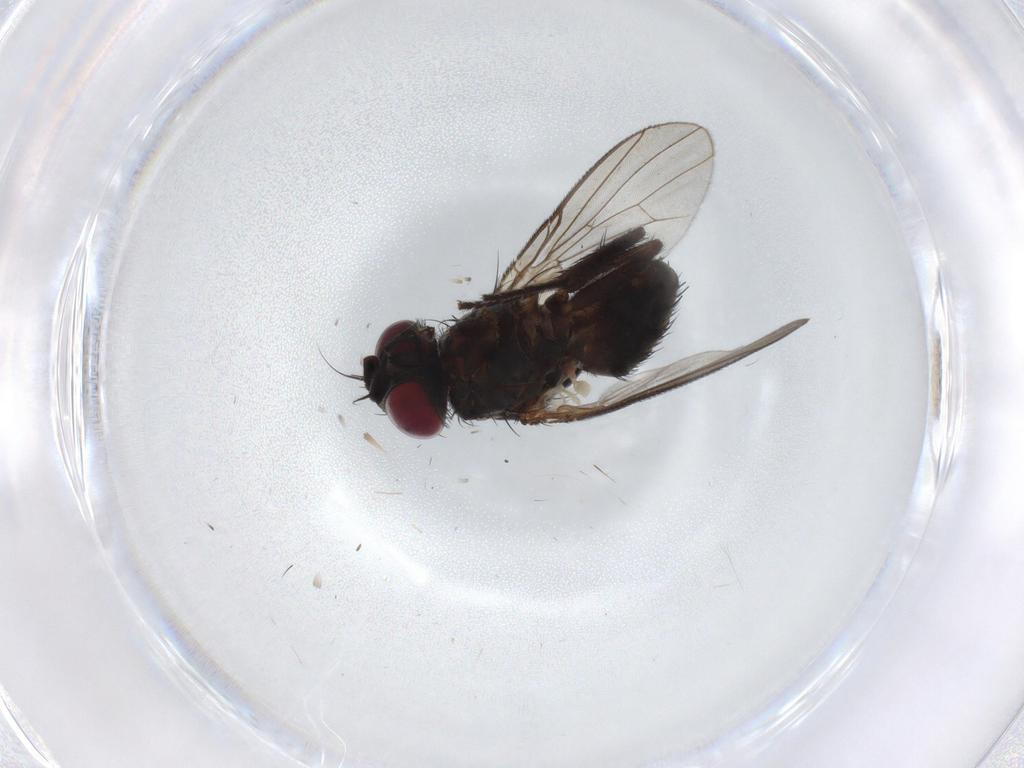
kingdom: Animalia
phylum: Arthropoda
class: Insecta
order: Diptera
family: Muscidae
